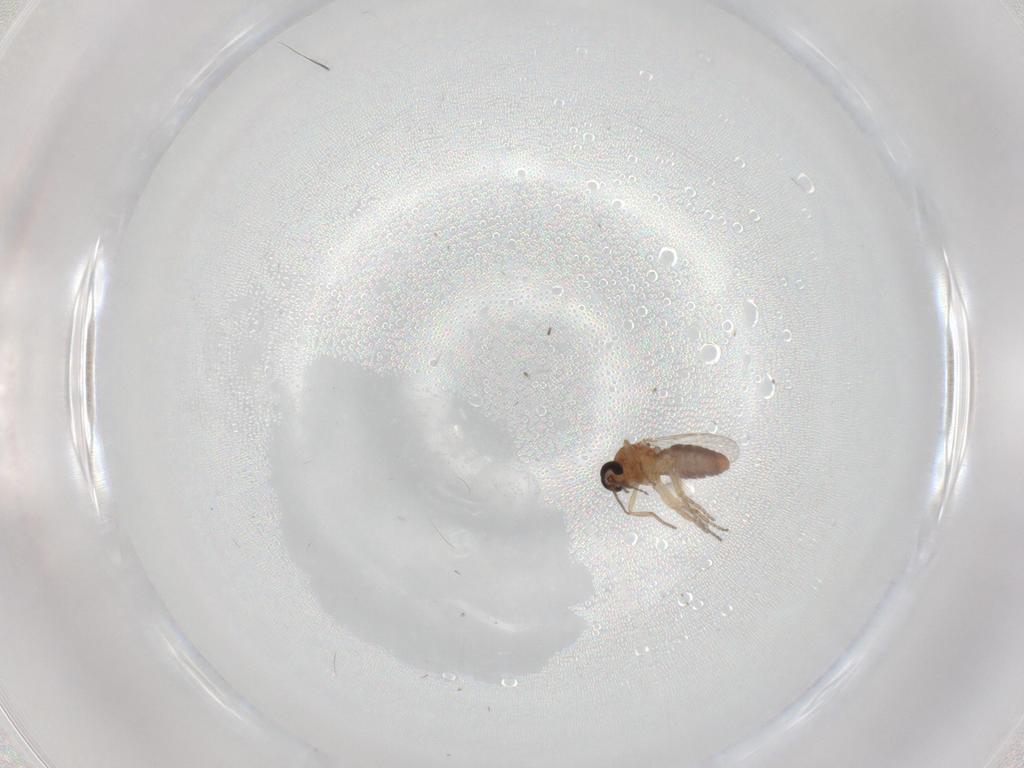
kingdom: Animalia
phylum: Arthropoda
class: Insecta
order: Diptera
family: Ceratopogonidae
